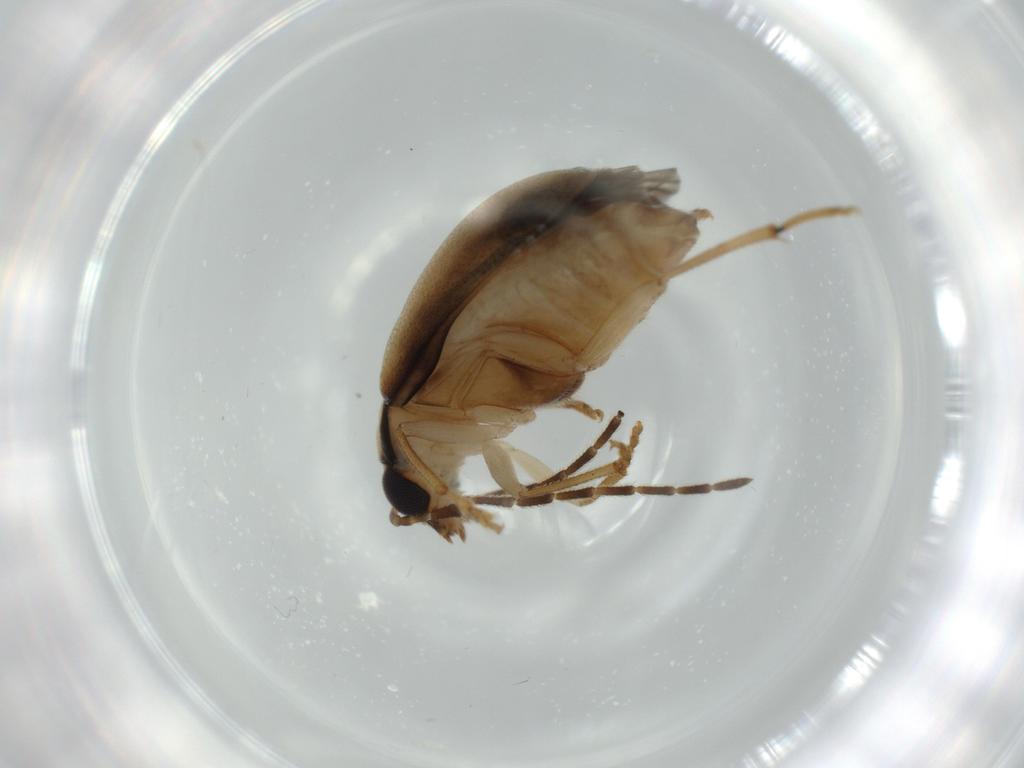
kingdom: Animalia
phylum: Arthropoda
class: Insecta
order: Coleoptera
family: Chrysomelidae
